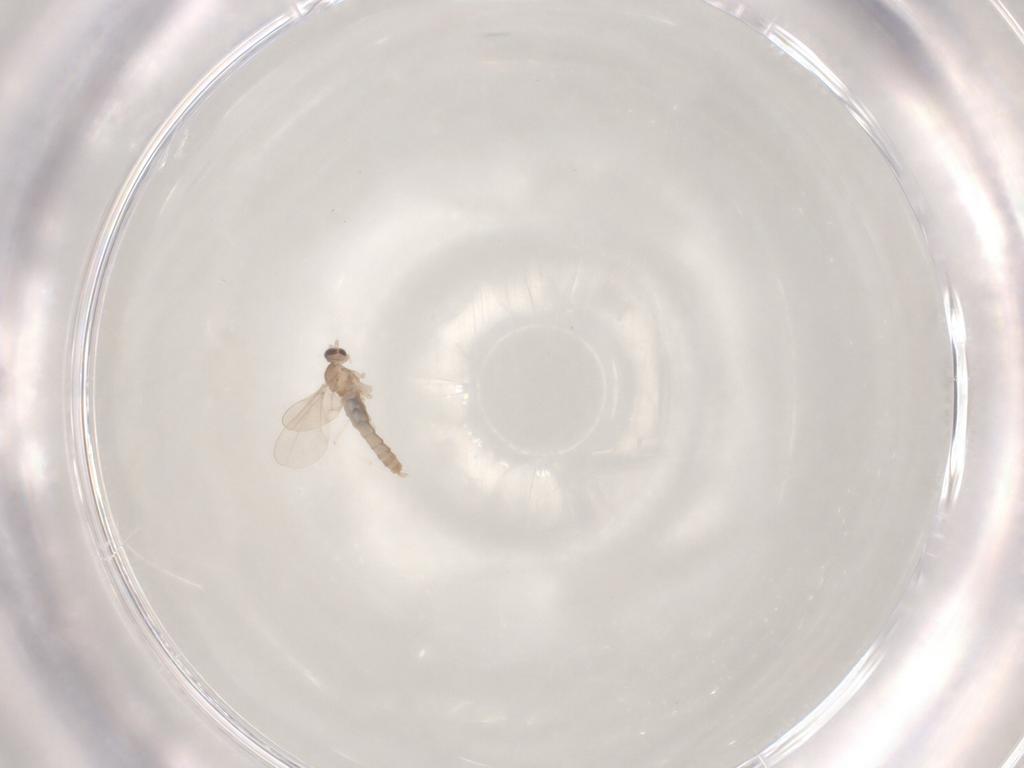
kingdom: Animalia
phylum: Arthropoda
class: Insecta
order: Diptera
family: Cecidomyiidae
